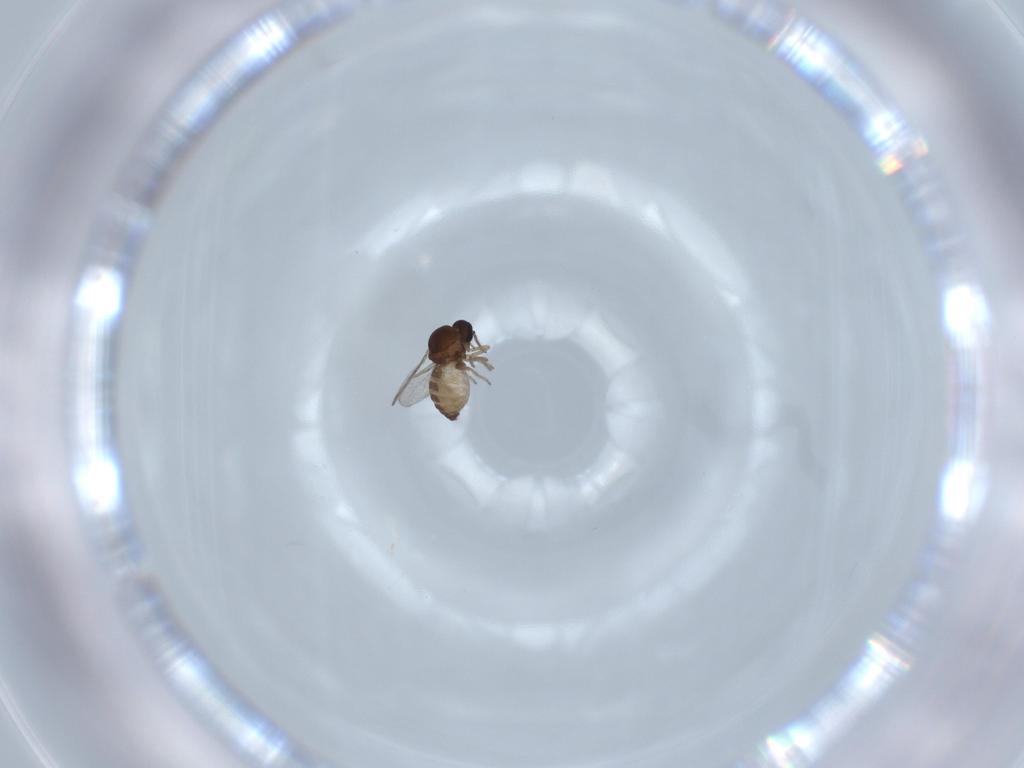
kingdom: Animalia
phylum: Arthropoda
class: Insecta
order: Diptera
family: Ceratopogonidae
